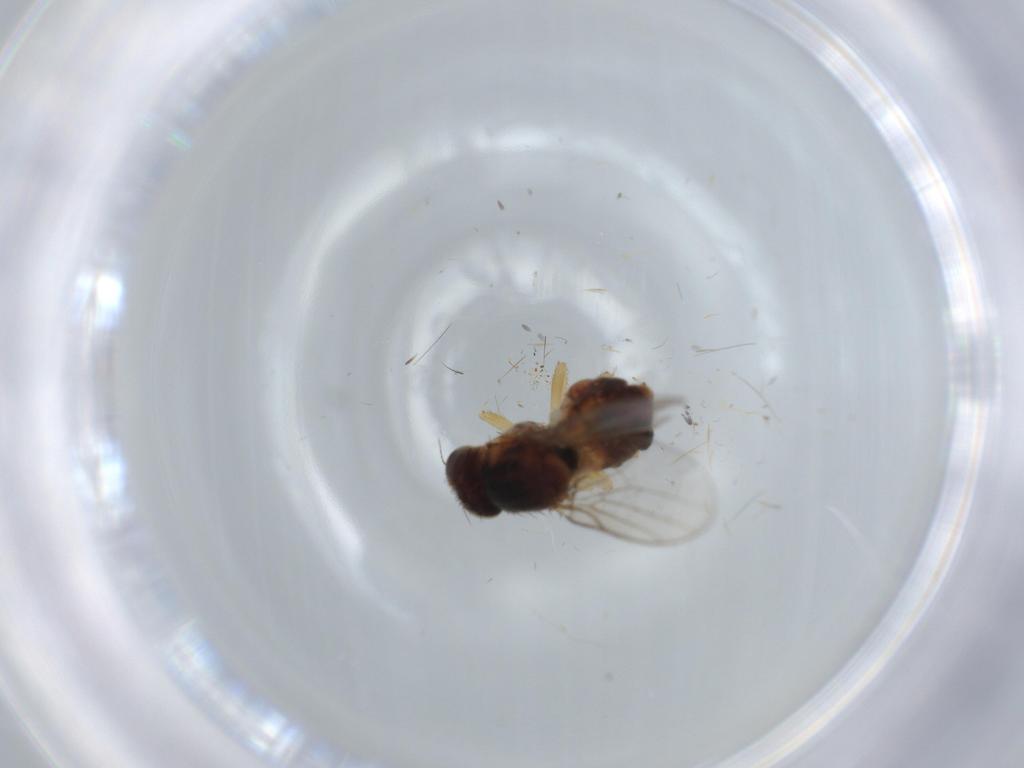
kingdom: Animalia
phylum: Arthropoda
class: Insecta
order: Diptera
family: Chloropidae
